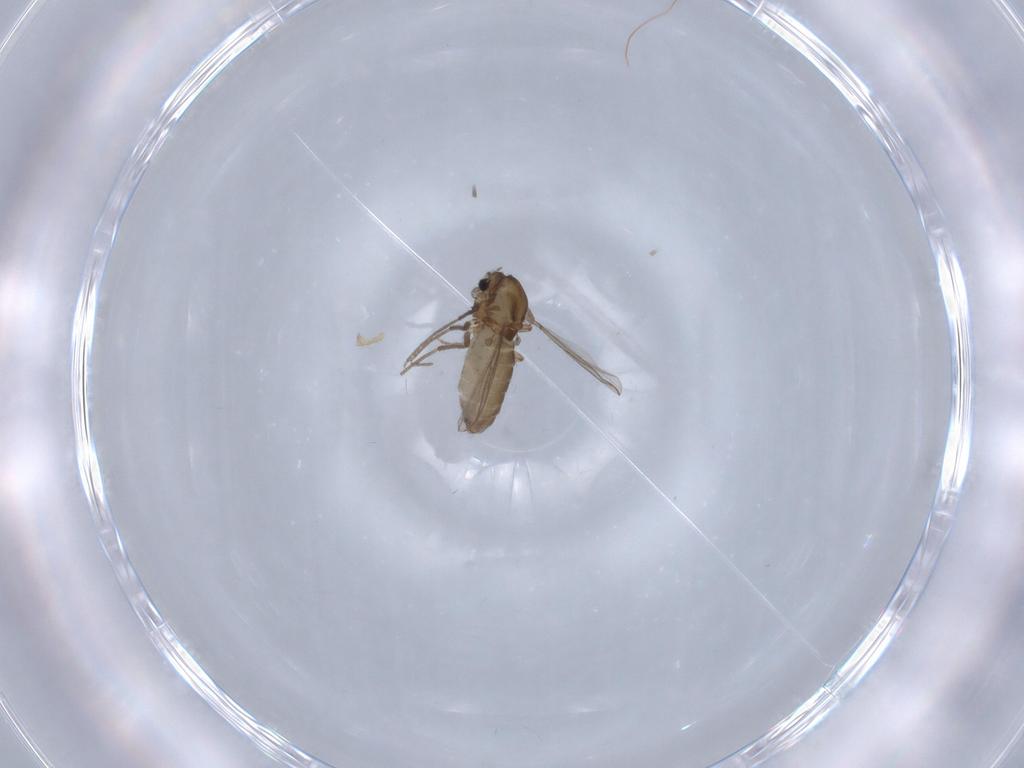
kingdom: Animalia
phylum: Arthropoda
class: Insecta
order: Diptera
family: Chironomidae
